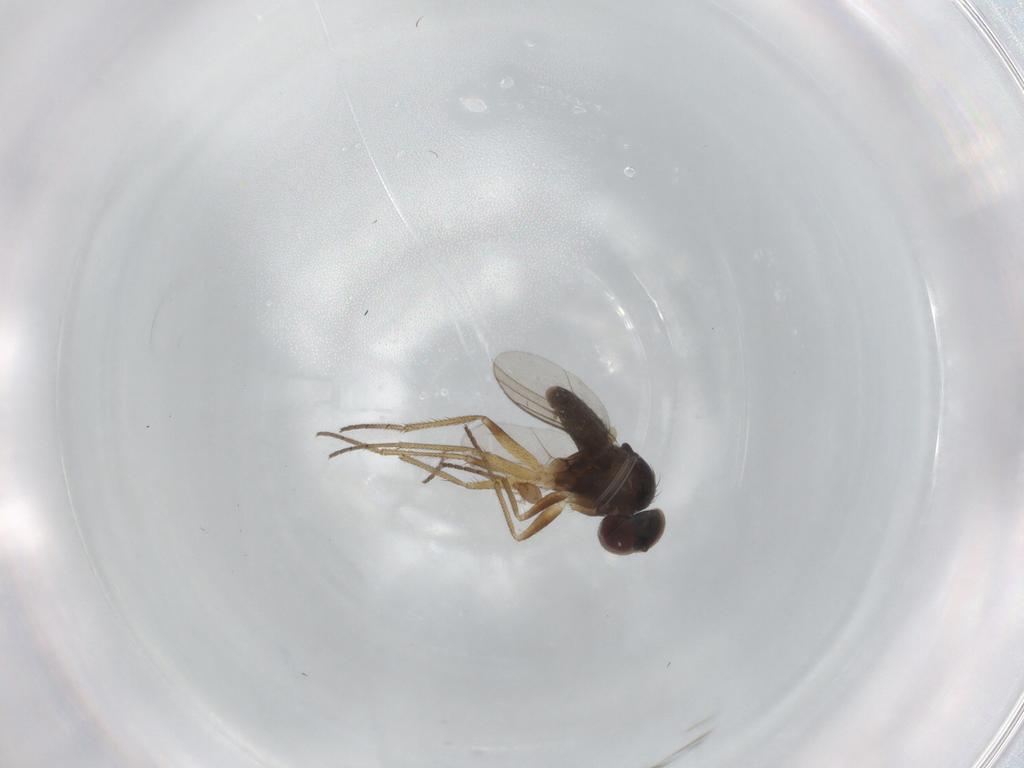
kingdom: Animalia
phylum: Arthropoda
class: Insecta
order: Diptera
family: Dolichopodidae
